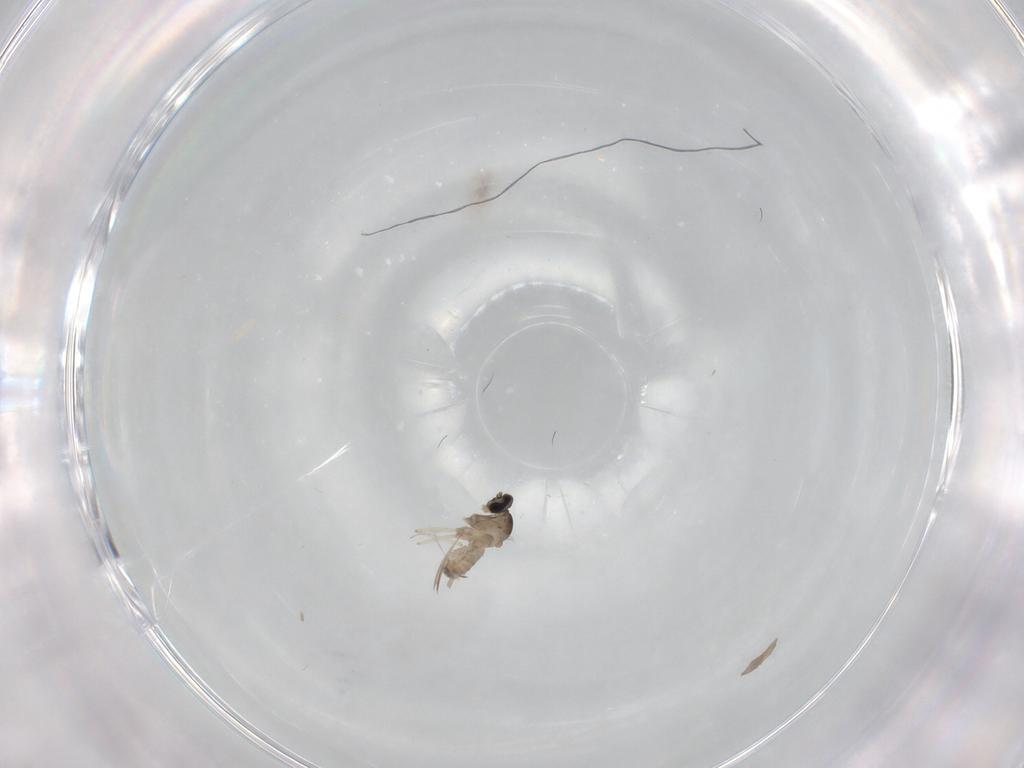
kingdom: Animalia
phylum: Arthropoda
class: Insecta
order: Diptera
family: Cecidomyiidae
